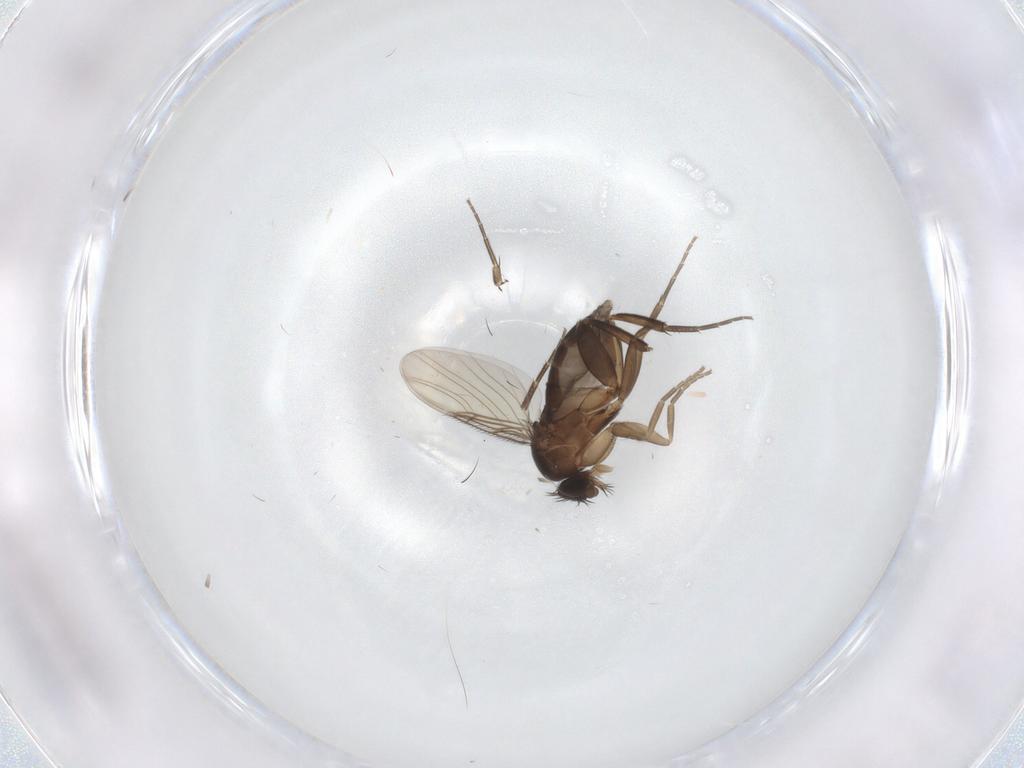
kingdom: Animalia
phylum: Arthropoda
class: Insecta
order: Diptera
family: Phoridae
